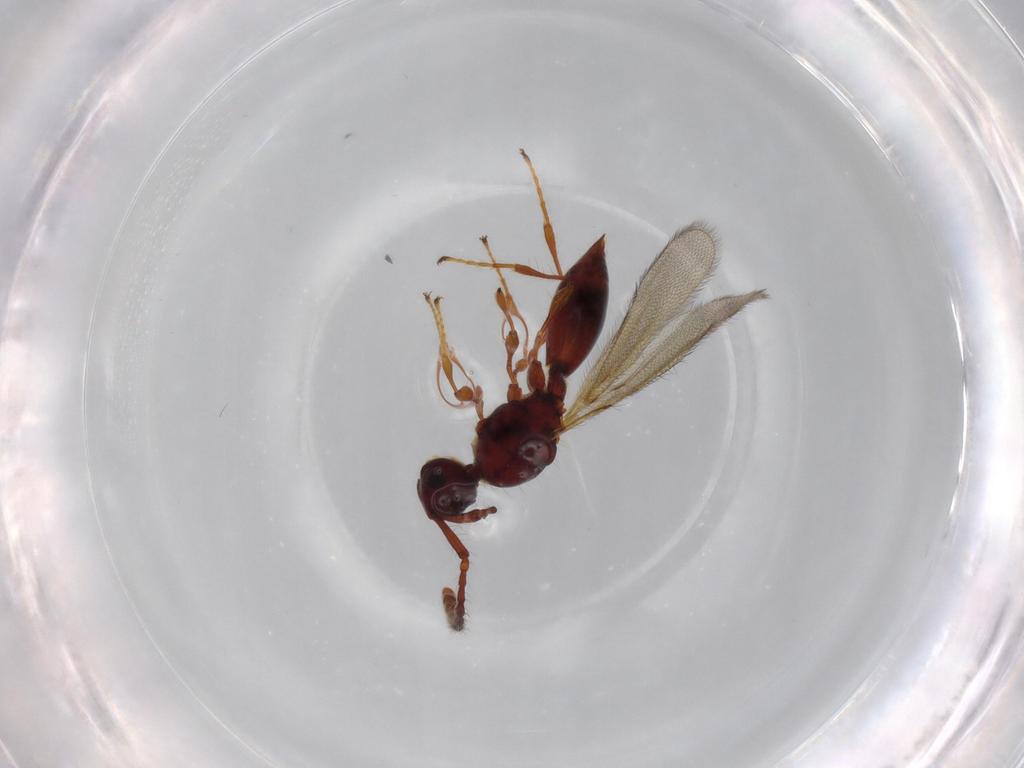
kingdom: Animalia
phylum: Arthropoda
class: Insecta
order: Hymenoptera
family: Diapriidae
